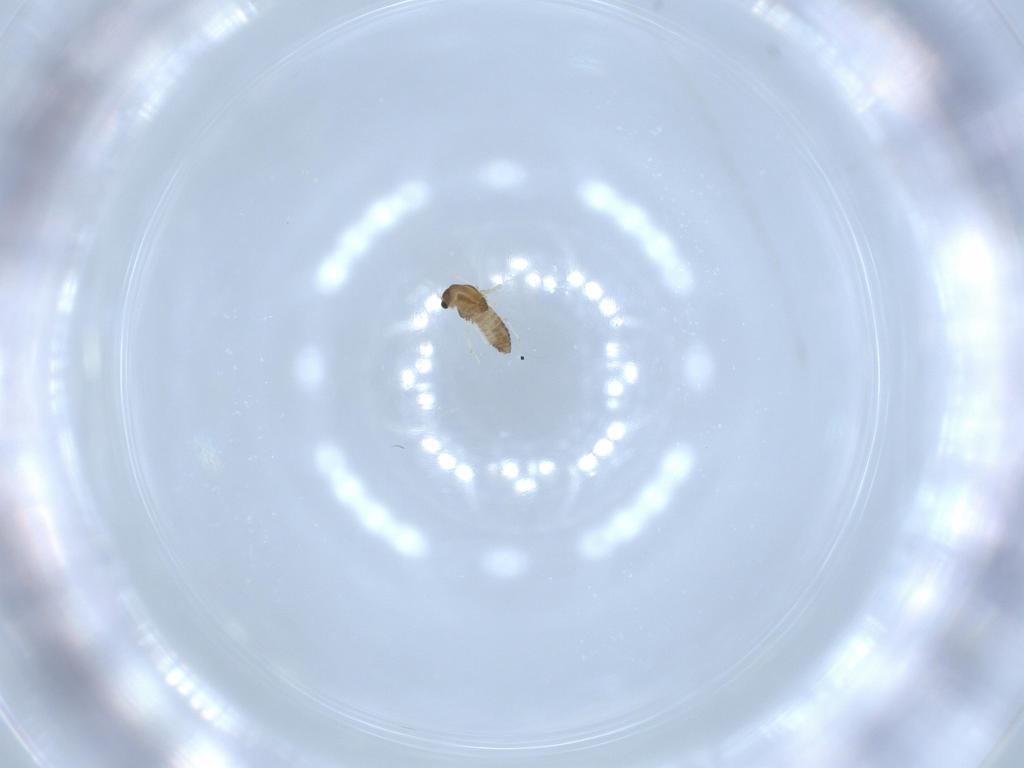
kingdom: Animalia
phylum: Arthropoda
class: Insecta
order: Diptera
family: Chironomidae
